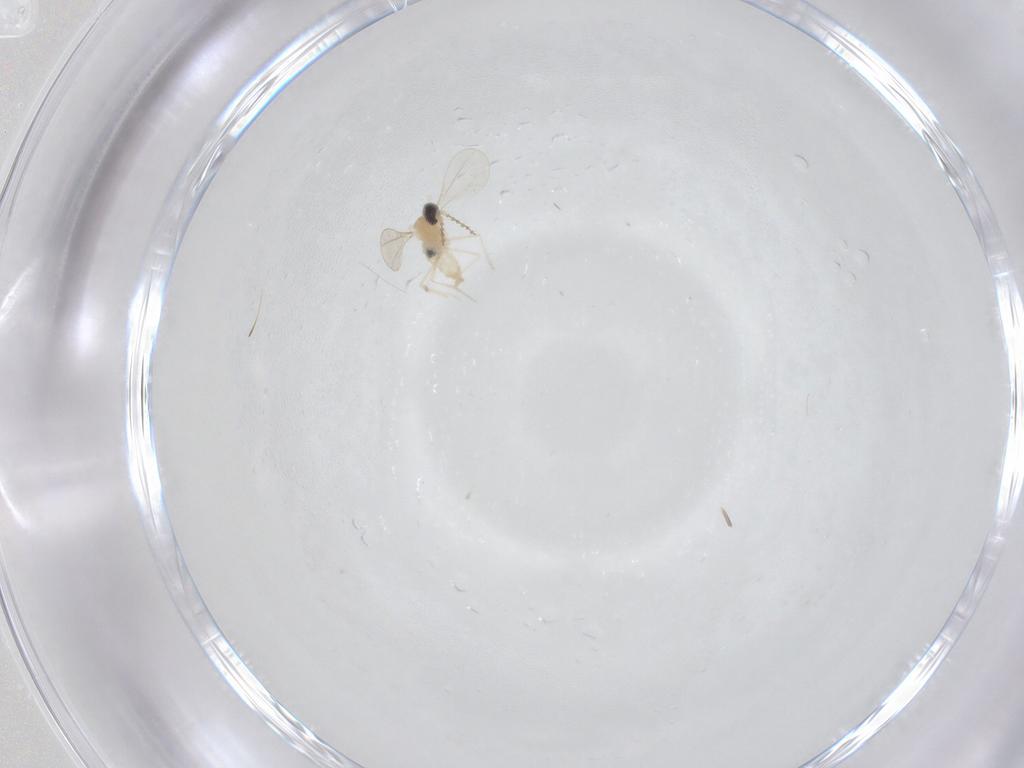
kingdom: Animalia
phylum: Arthropoda
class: Insecta
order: Diptera
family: Cecidomyiidae
